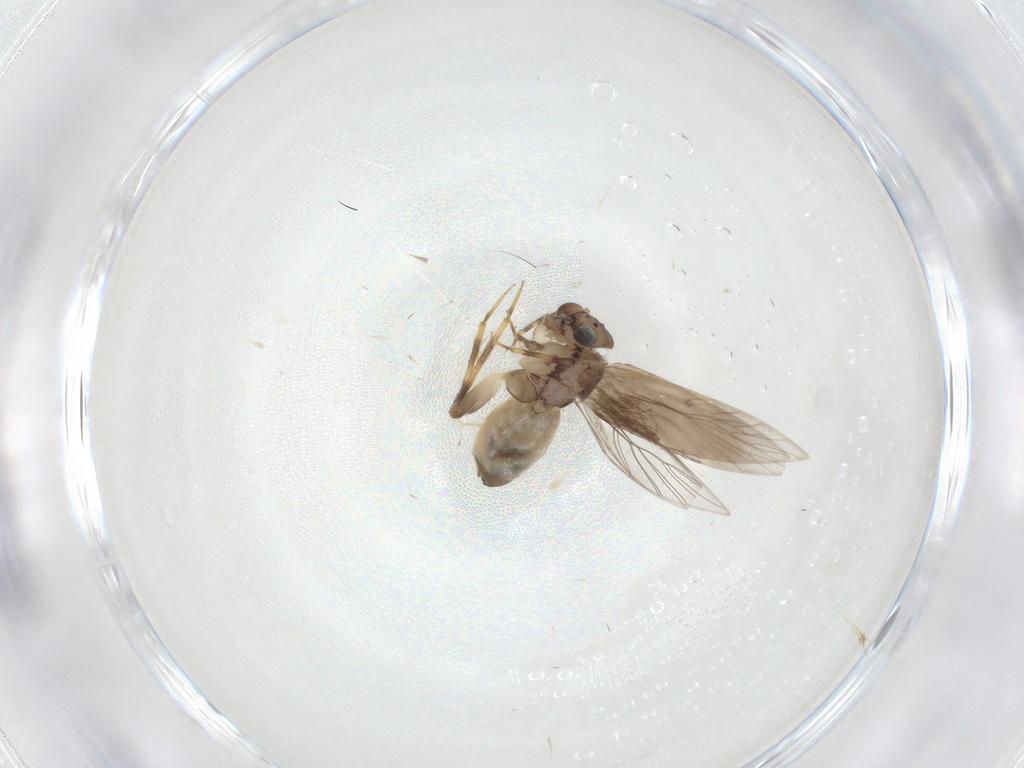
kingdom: Animalia
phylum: Arthropoda
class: Insecta
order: Psocodea
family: Lepidopsocidae
